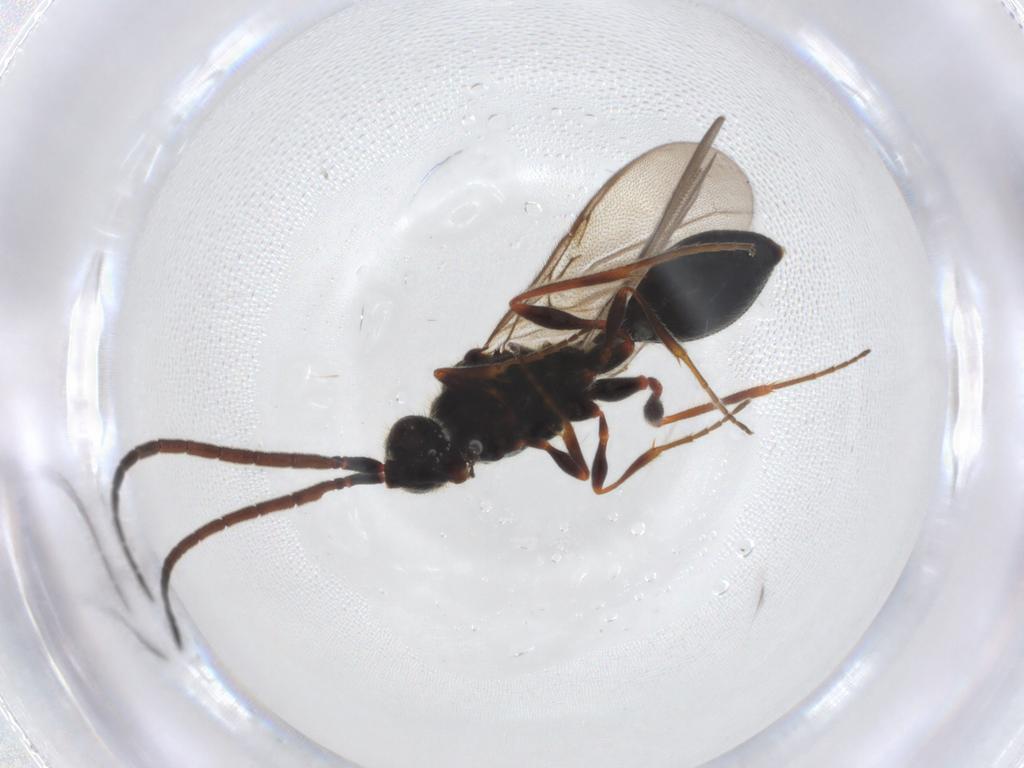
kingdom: Animalia
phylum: Arthropoda
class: Insecta
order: Hymenoptera
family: Diapriidae
